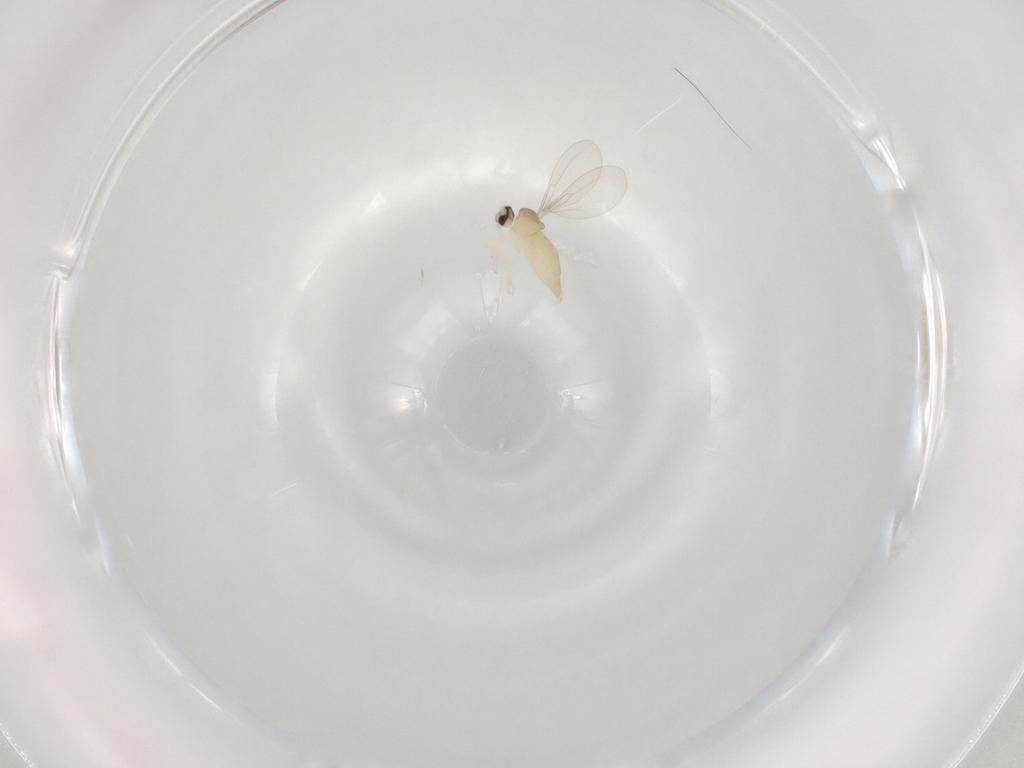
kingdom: Animalia
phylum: Arthropoda
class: Insecta
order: Diptera
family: Cecidomyiidae
